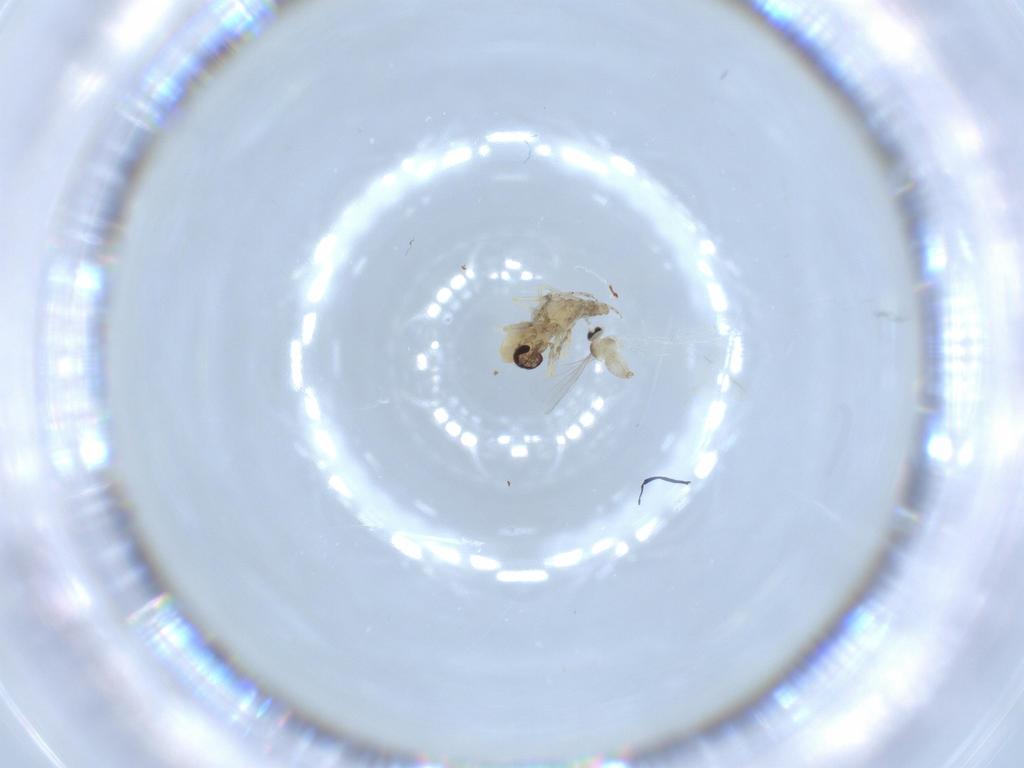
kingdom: Animalia
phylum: Arthropoda
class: Insecta
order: Diptera
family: Cecidomyiidae
